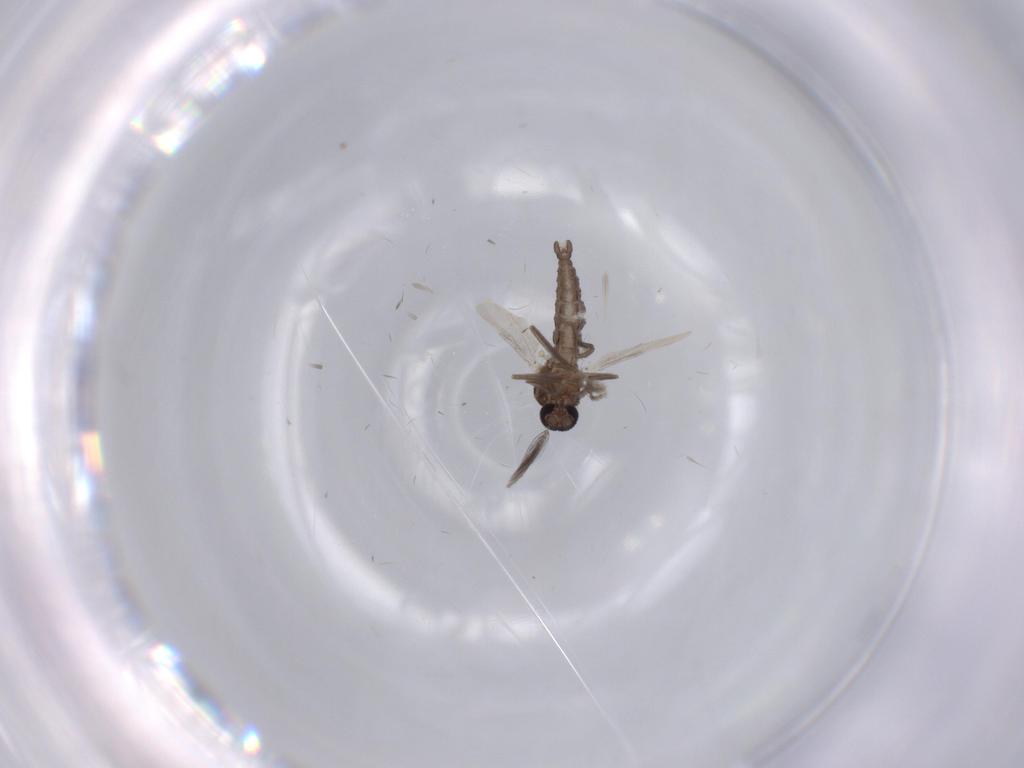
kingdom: Animalia
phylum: Arthropoda
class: Insecta
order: Diptera
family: Ceratopogonidae
